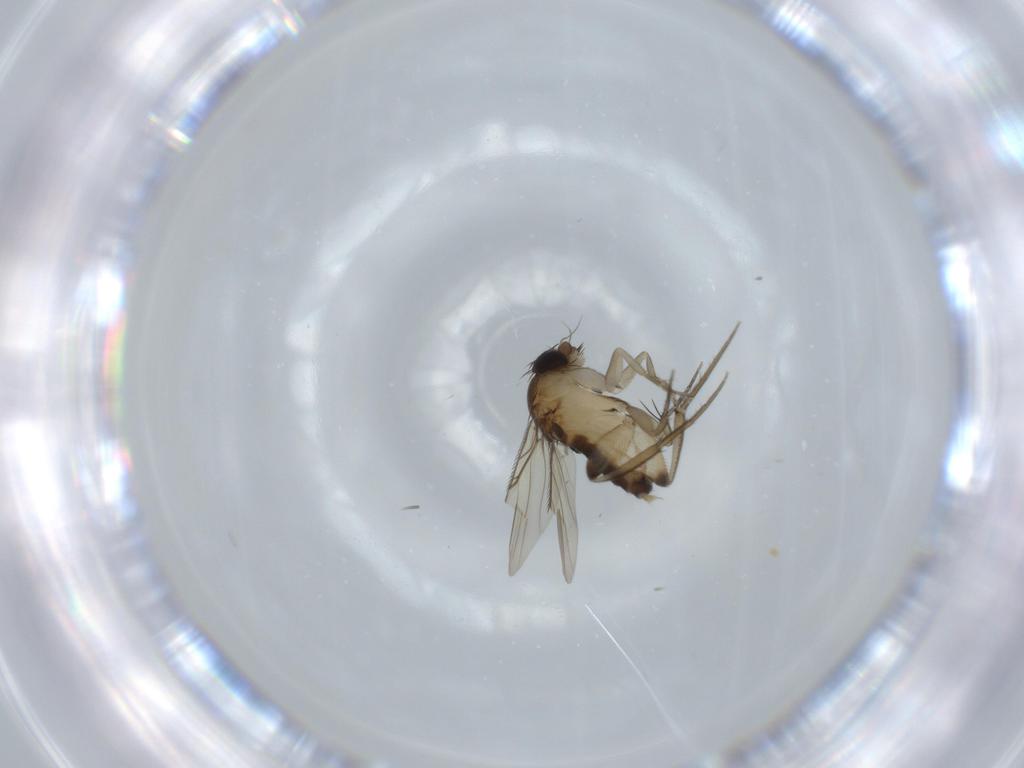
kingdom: Animalia
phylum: Arthropoda
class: Insecta
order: Diptera
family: Phoridae
